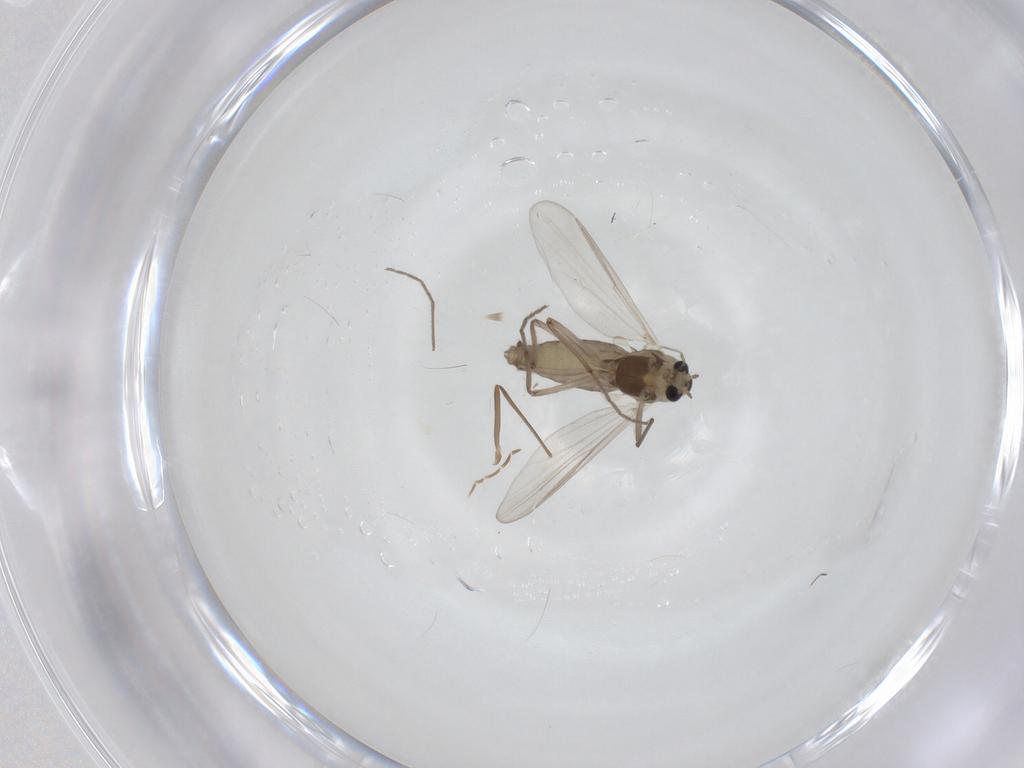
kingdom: Animalia
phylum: Arthropoda
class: Insecta
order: Diptera
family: Chironomidae
